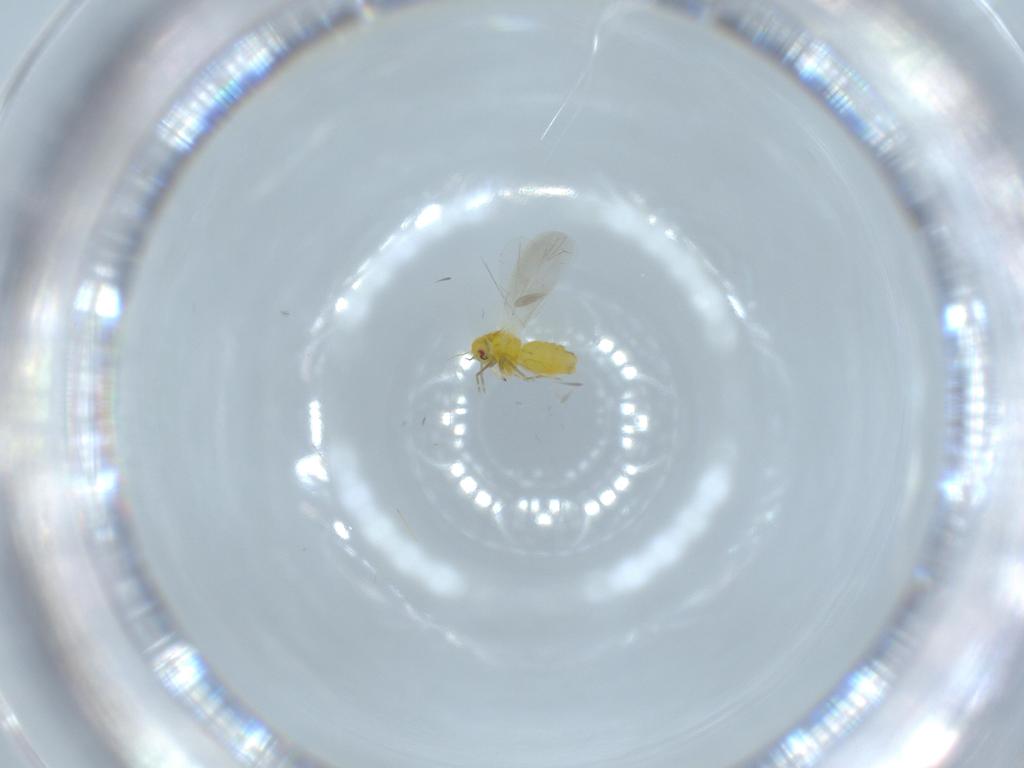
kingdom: Animalia
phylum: Arthropoda
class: Insecta
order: Hemiptera
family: Aleyrodidae
